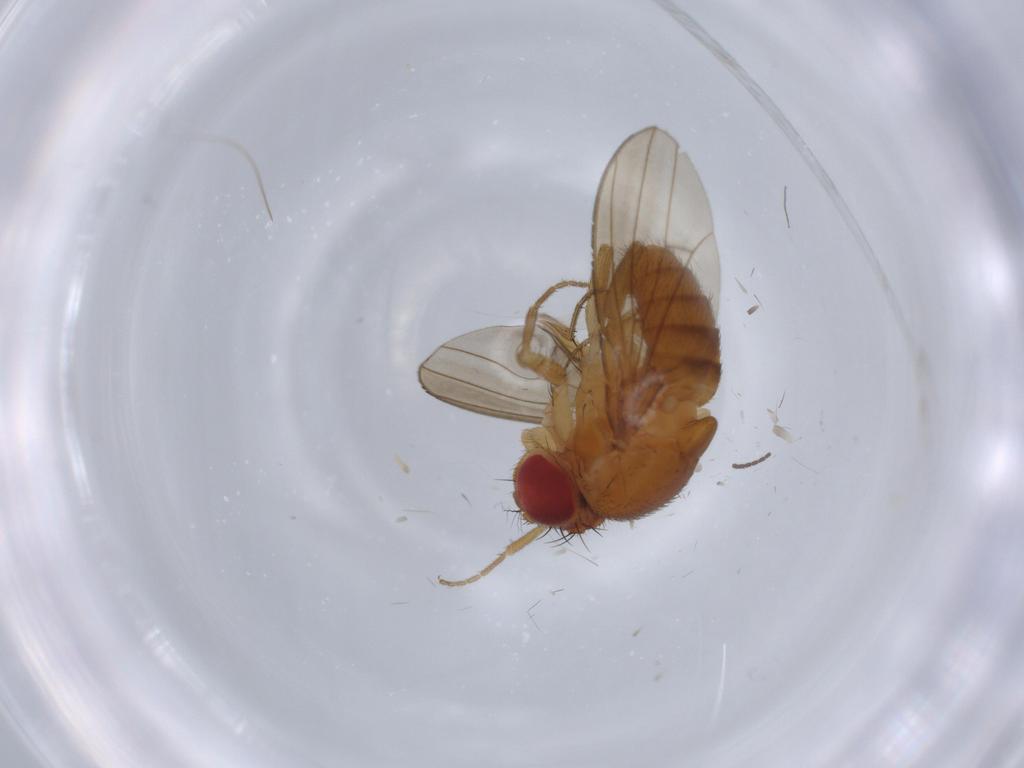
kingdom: Animalia
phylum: Arthropoda
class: Insecta
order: Diptera
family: Drosophilidae
